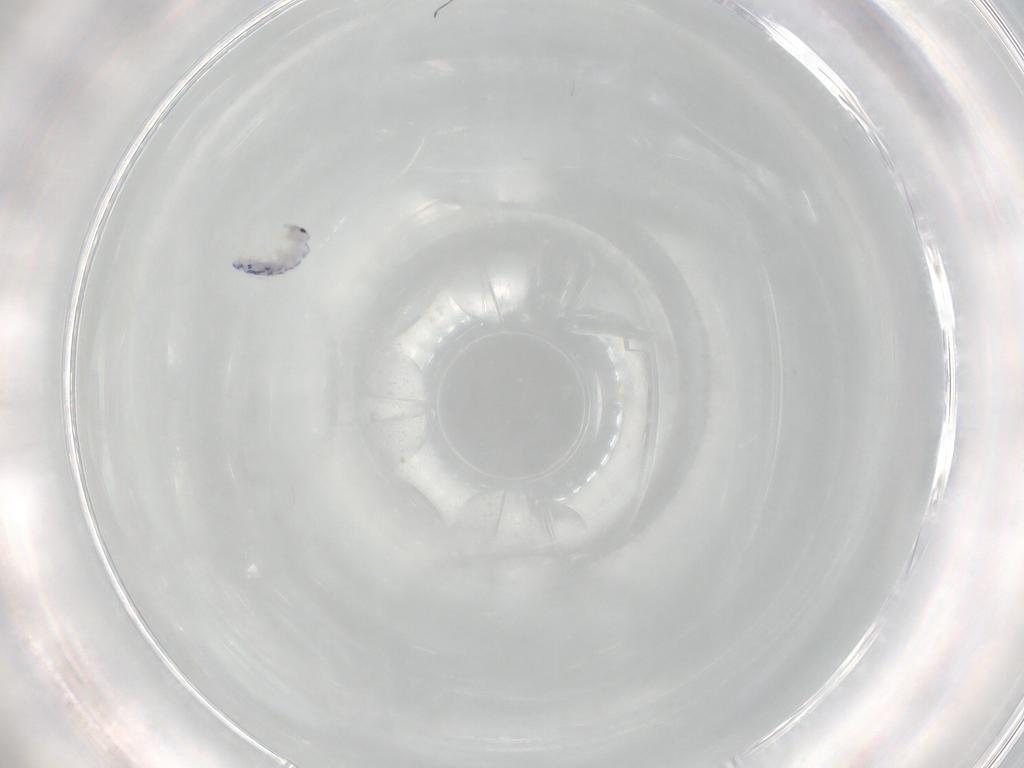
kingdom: Animalia
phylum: Arthropoda
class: Collembola
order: Entomobryomorpha
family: Entomobryidae
